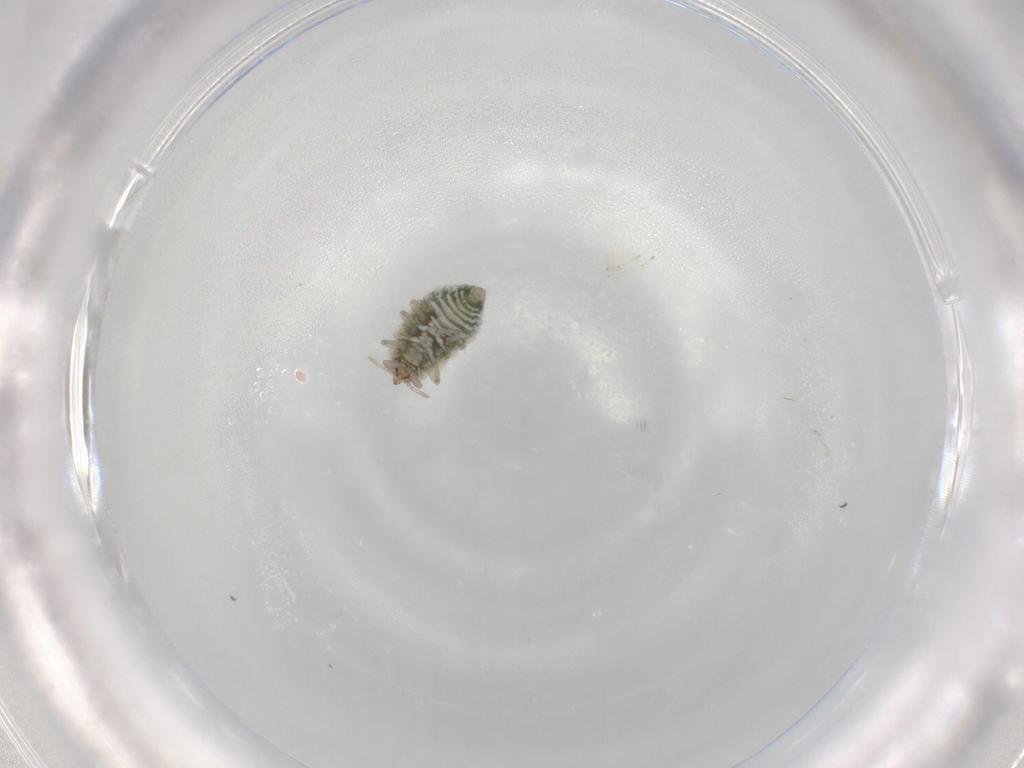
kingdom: Animalia
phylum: Arthropoda
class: Insecta
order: Neuroptera
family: Coniopterygidae
